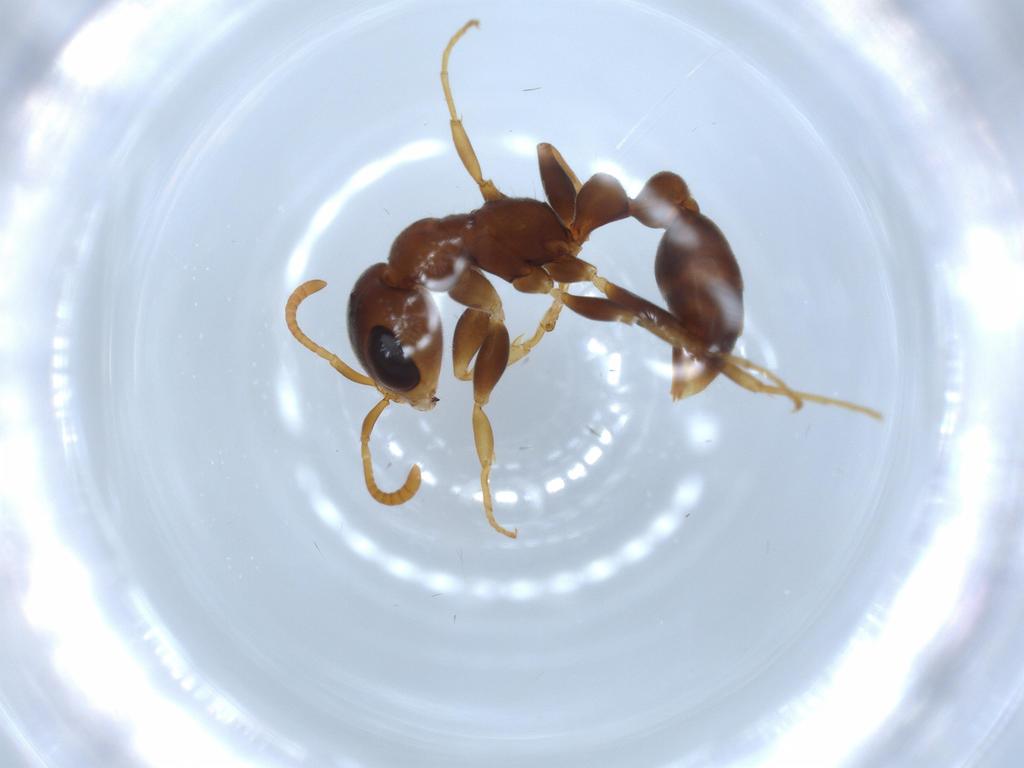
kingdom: Animalia
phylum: Arthropoda
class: Insecta
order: Hymenoptera
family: Formicidae
